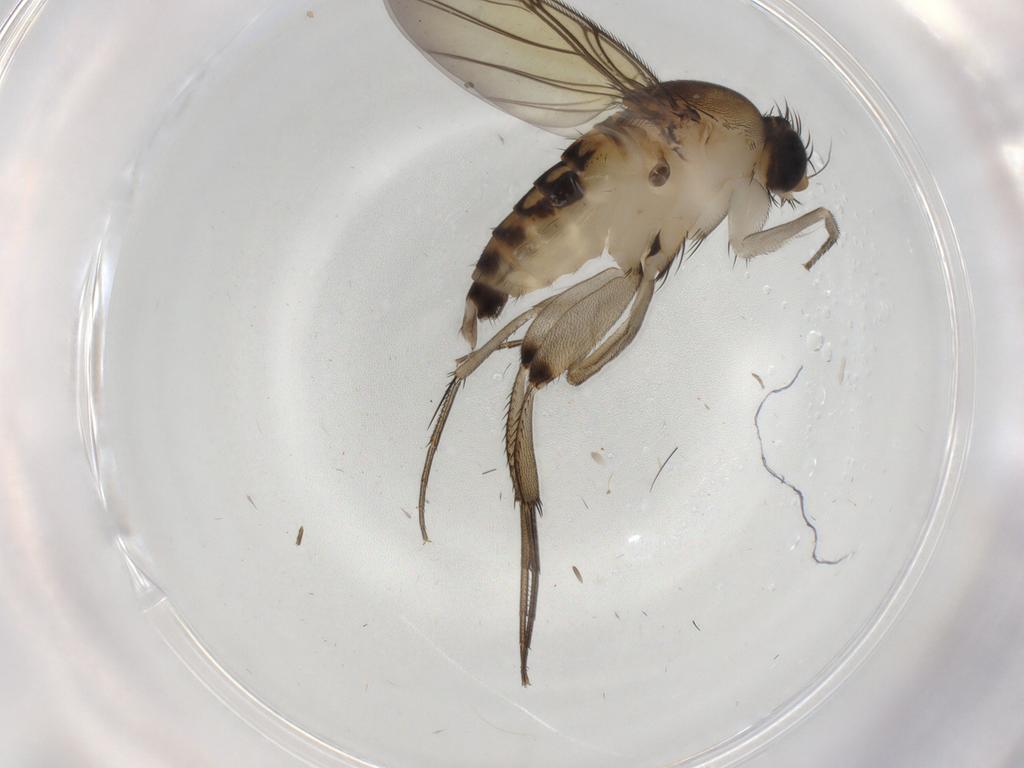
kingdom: Animalia
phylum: Arthropoda
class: Insecta
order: Diptera
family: Phoridae
